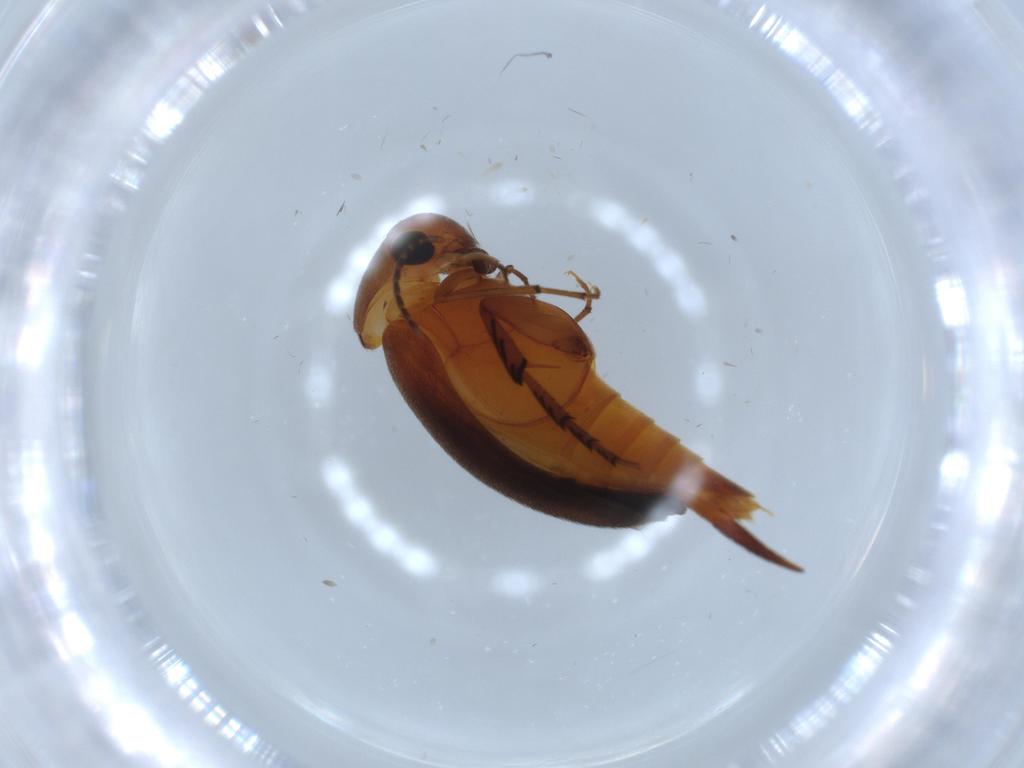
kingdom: Animalia
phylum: Arthropoda
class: Insecta
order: Coleoptera
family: Mordellidae
